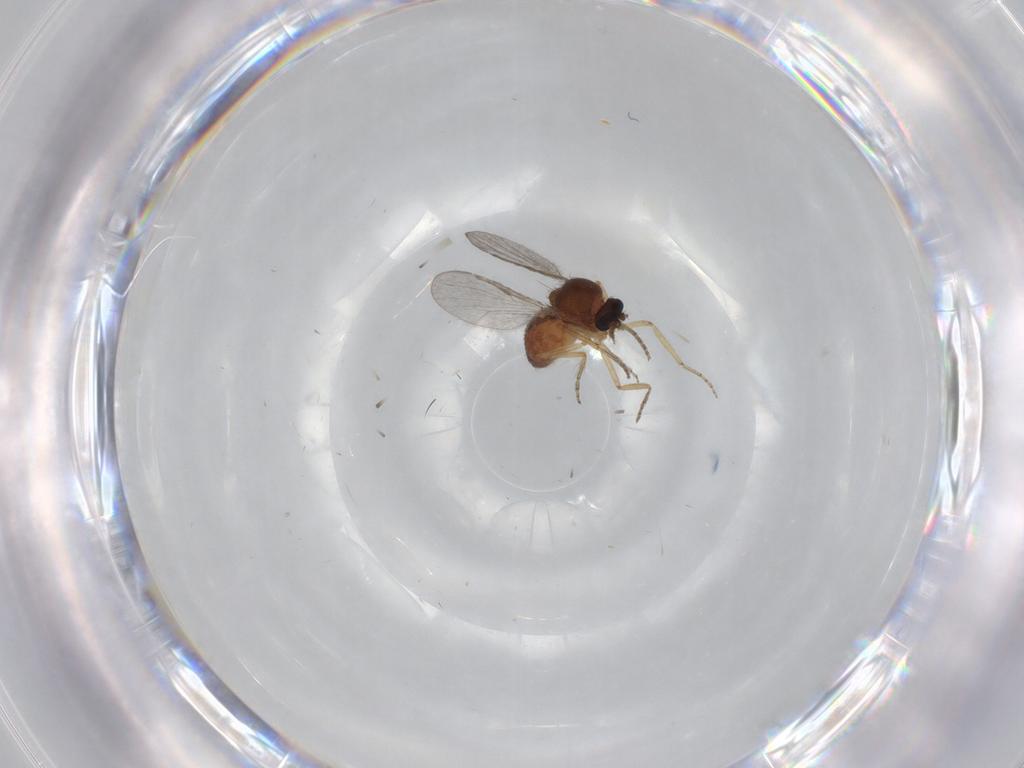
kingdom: Animalia
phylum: Arthropoda
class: Insecta
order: Diptera
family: Ceratopogonidae
